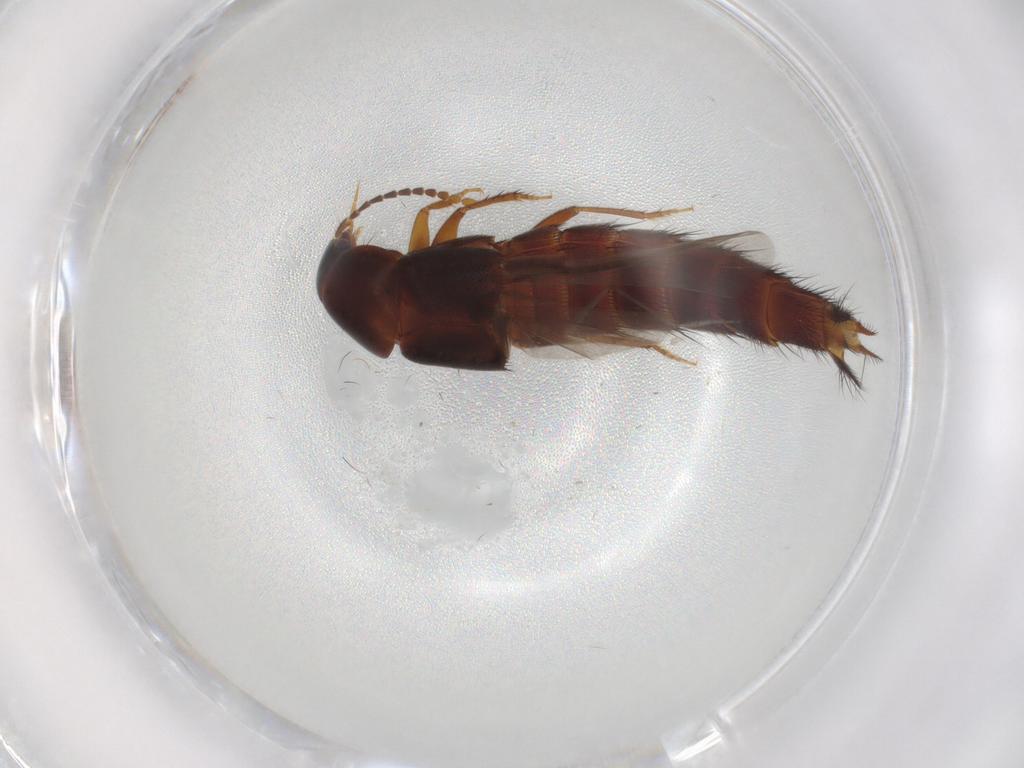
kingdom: Animalia
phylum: Arthropoda
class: Insecta
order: Coleoptera
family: Staphylinidae
